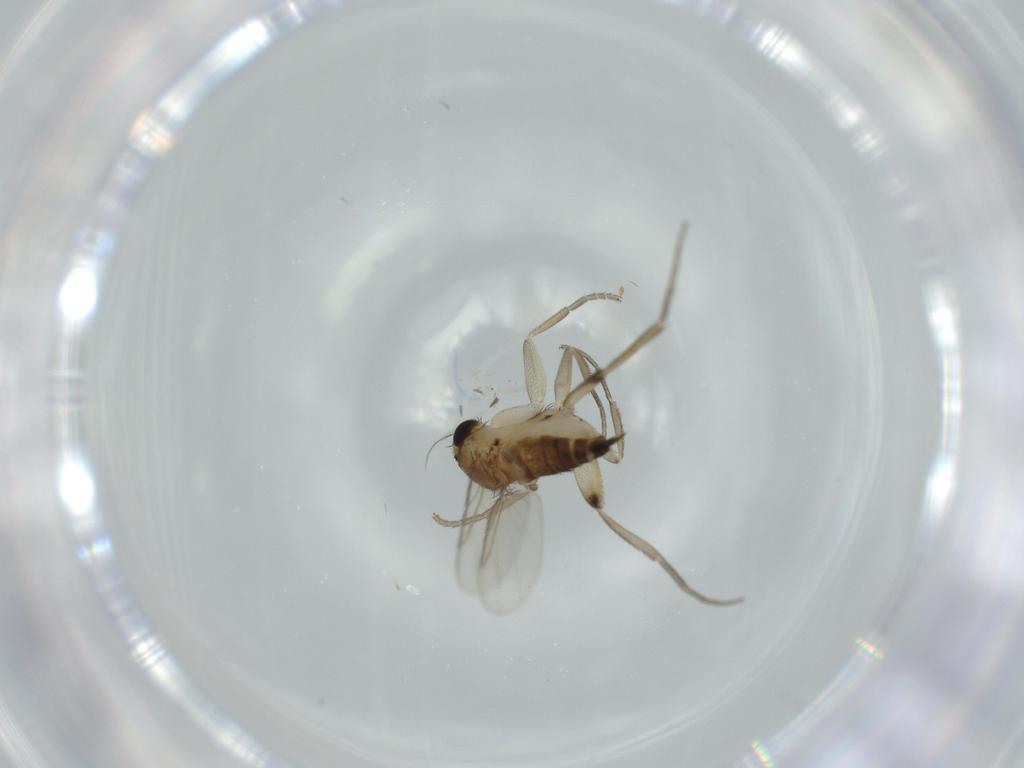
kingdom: Animalia
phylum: Arthropoda
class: Insecta
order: Diptera
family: Phoridae
